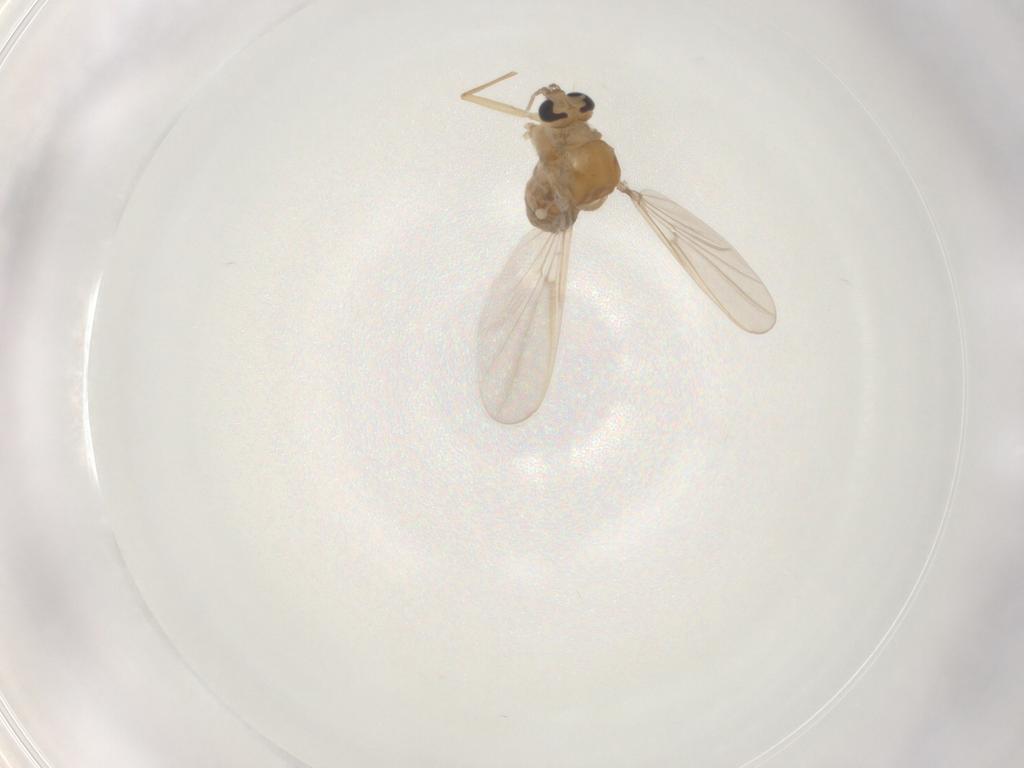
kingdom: Animalia
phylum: Arthropoda
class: Insecta
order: Diptera
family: Chironomidae
